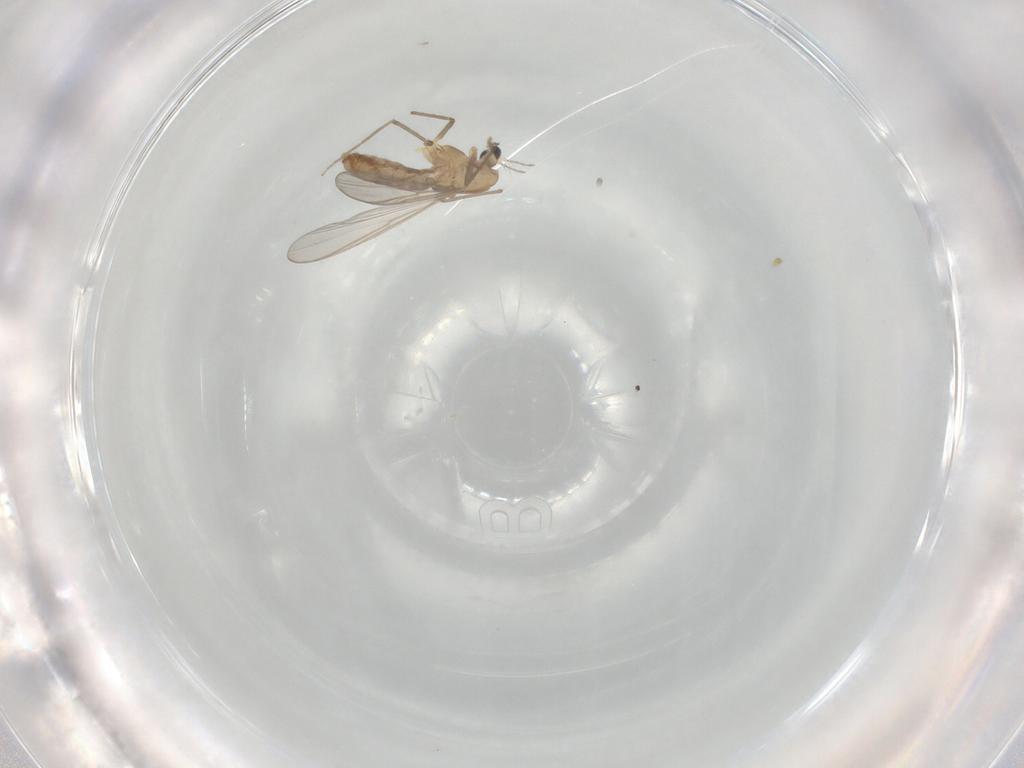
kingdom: Animalia
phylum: Arthropoda
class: Insecta
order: Diptera
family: Chironomidae
